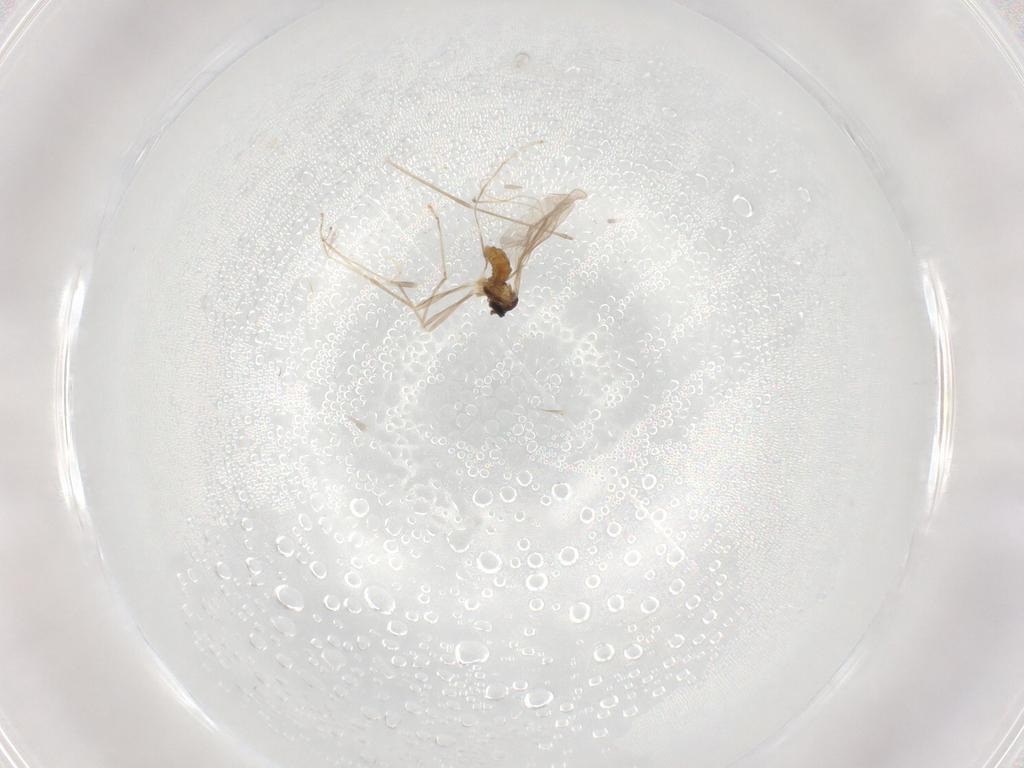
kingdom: Animalia
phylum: Arthropoda
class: Insecta
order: Diptera
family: Cecidomyiidae
